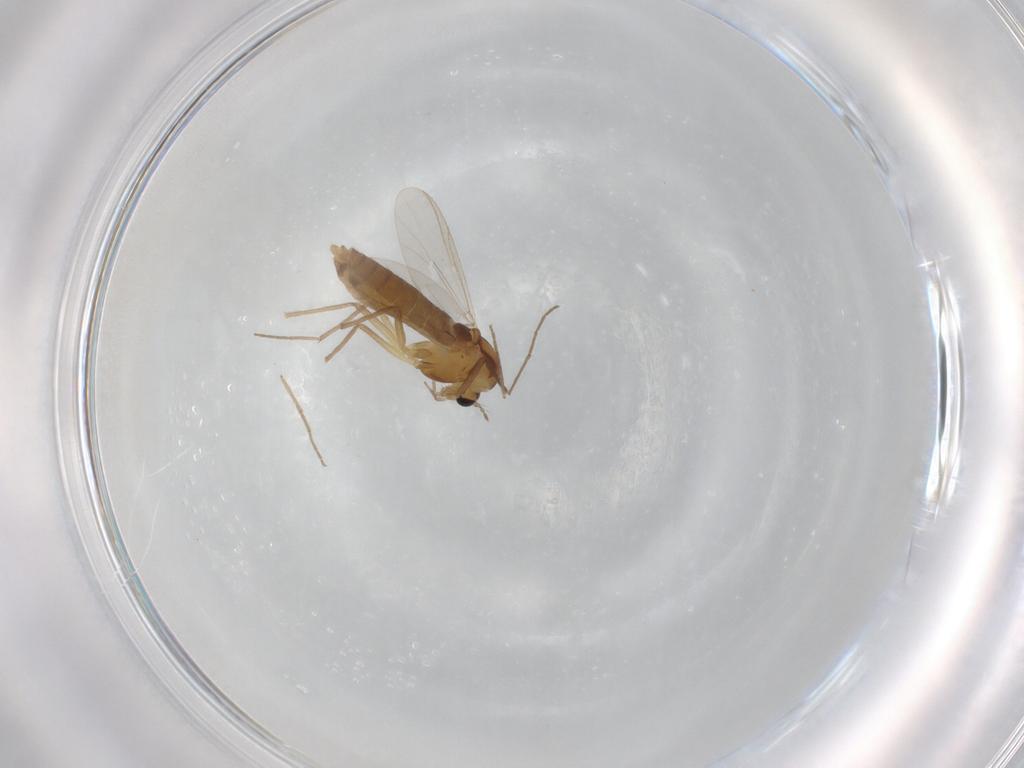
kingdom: Animalia
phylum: Arthropoda
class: Insecta
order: Diptera
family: Chironomidae
